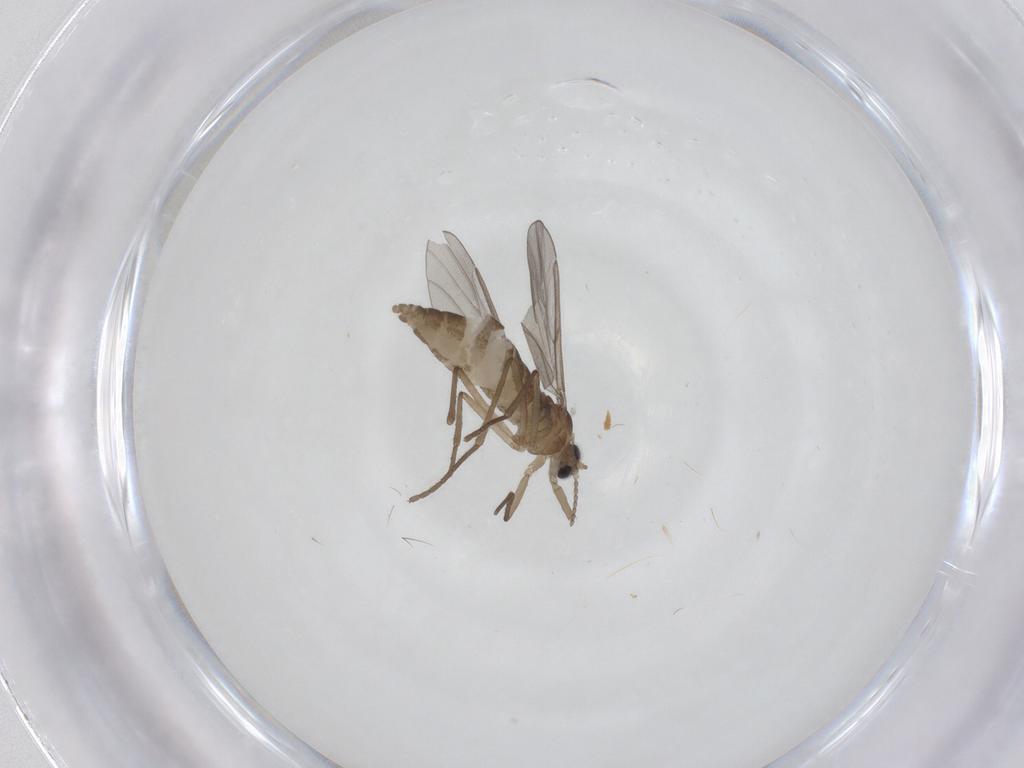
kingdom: Animalia
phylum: Arthropoda
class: Insecta
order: Diptera
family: Cecidomyiidae
